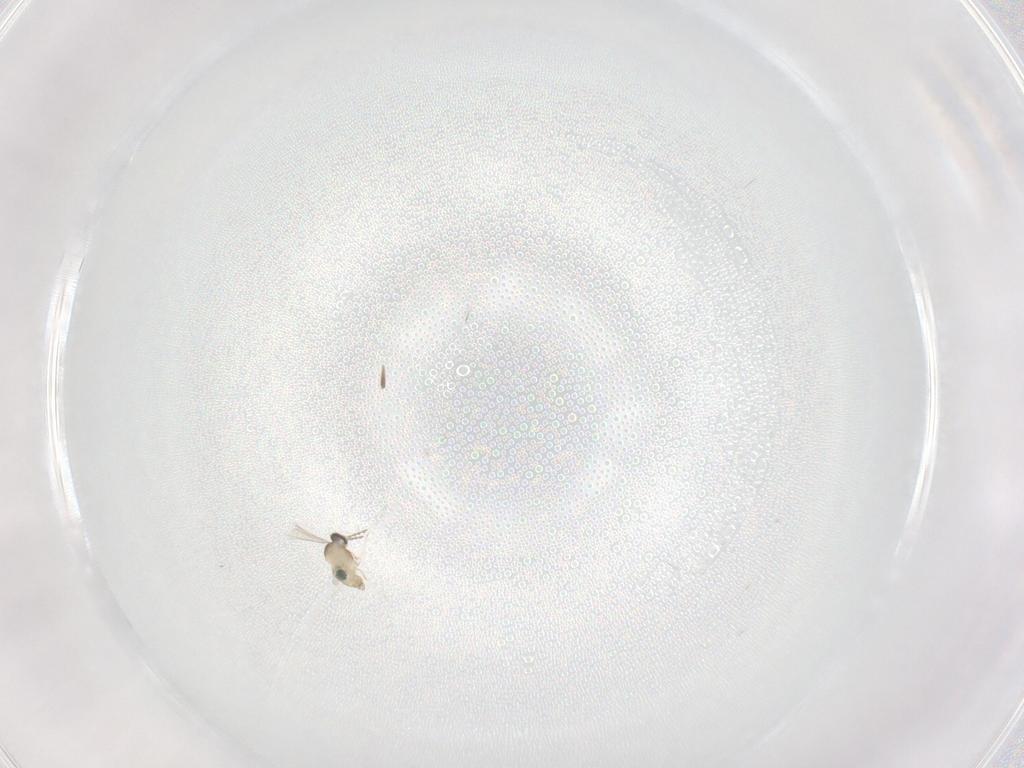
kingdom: Animalia
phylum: Arthropoda
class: Insecta
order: Diptera
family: Cecidomyiidae
